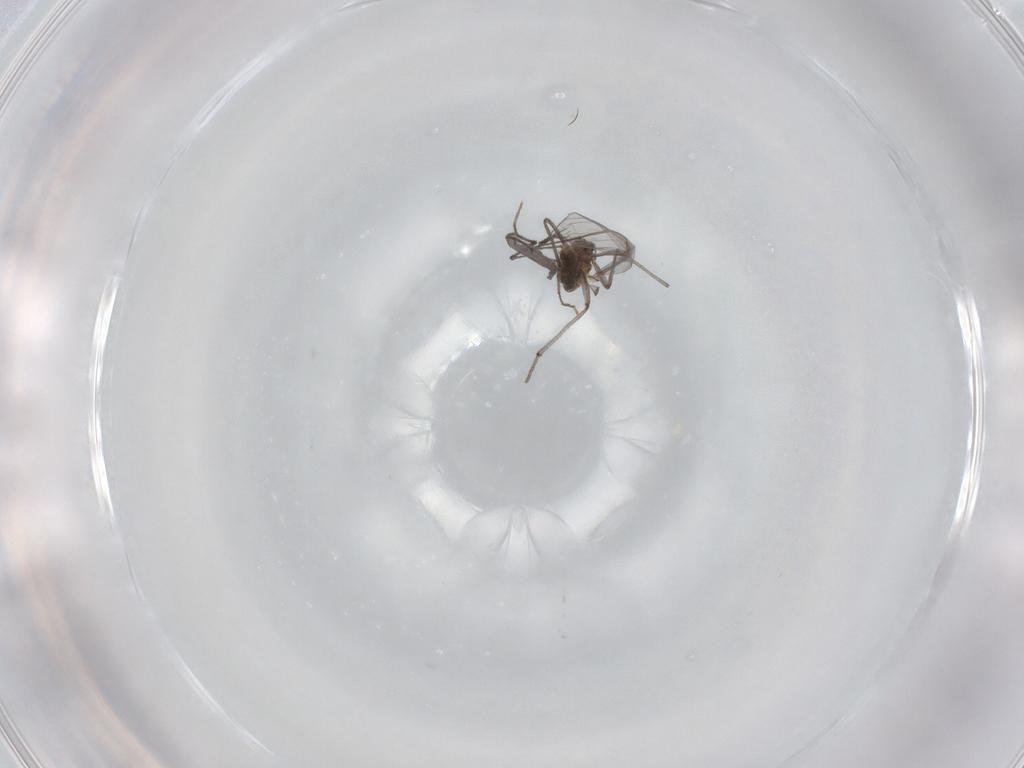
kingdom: Animalia
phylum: Arthropoda
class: Insecta
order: Diptera
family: Chironomidae
